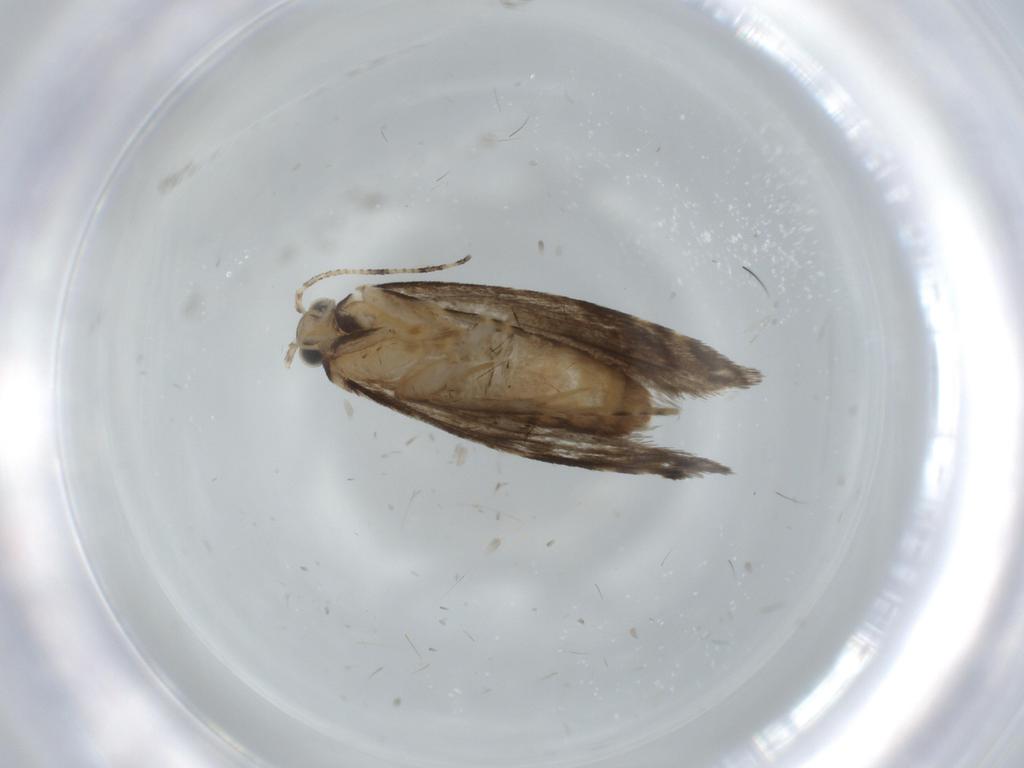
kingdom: Animalia
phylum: Arthropoda
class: Insecta
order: Lepidoptera
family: Tineidae
